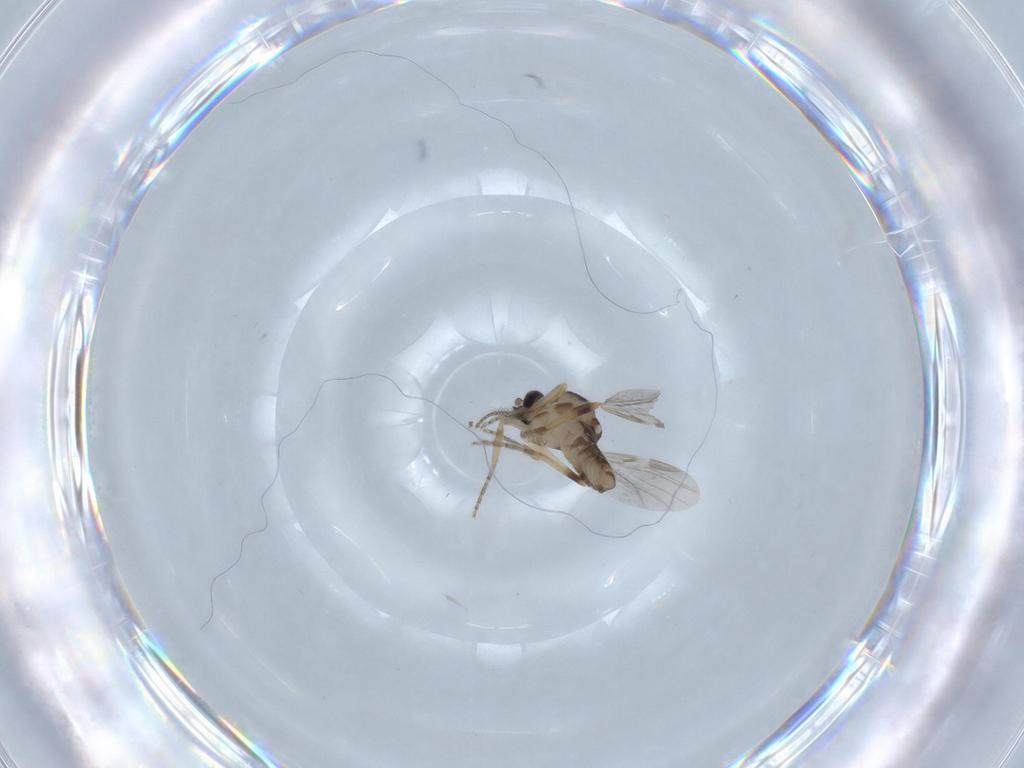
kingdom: Animalia
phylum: Arthropoda
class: Insecta
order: Diptera
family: Ceratopogonidae
